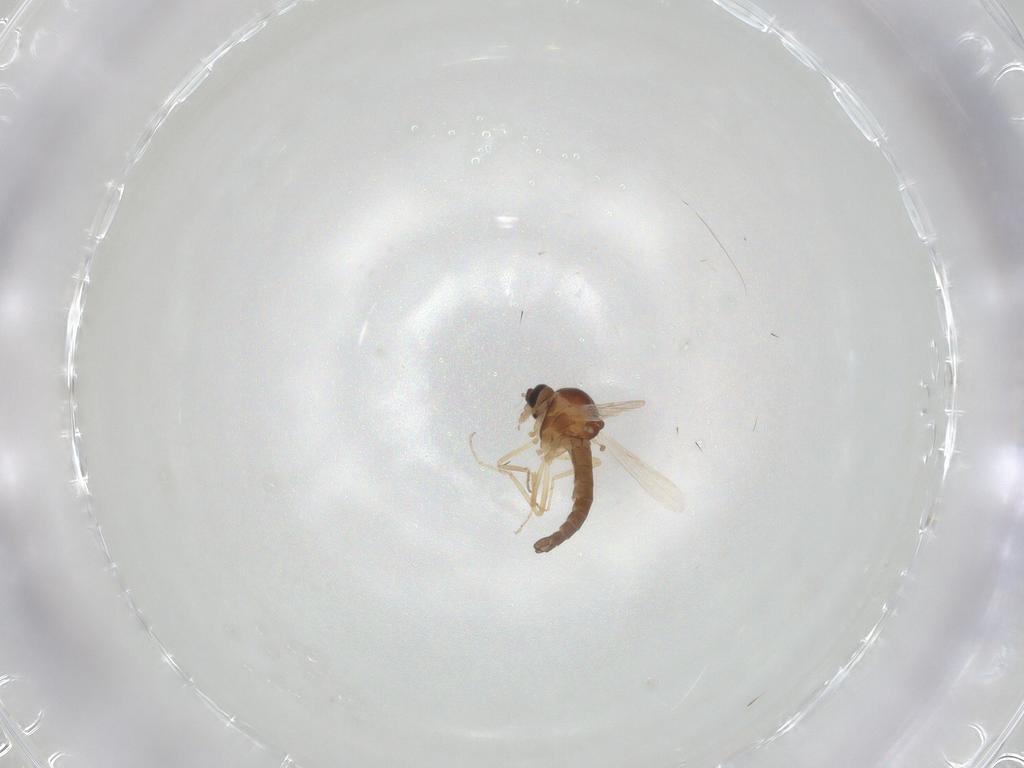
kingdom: Animalia
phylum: Arthropoda
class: Insecta
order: Diptera
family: Ceratopogonidae
